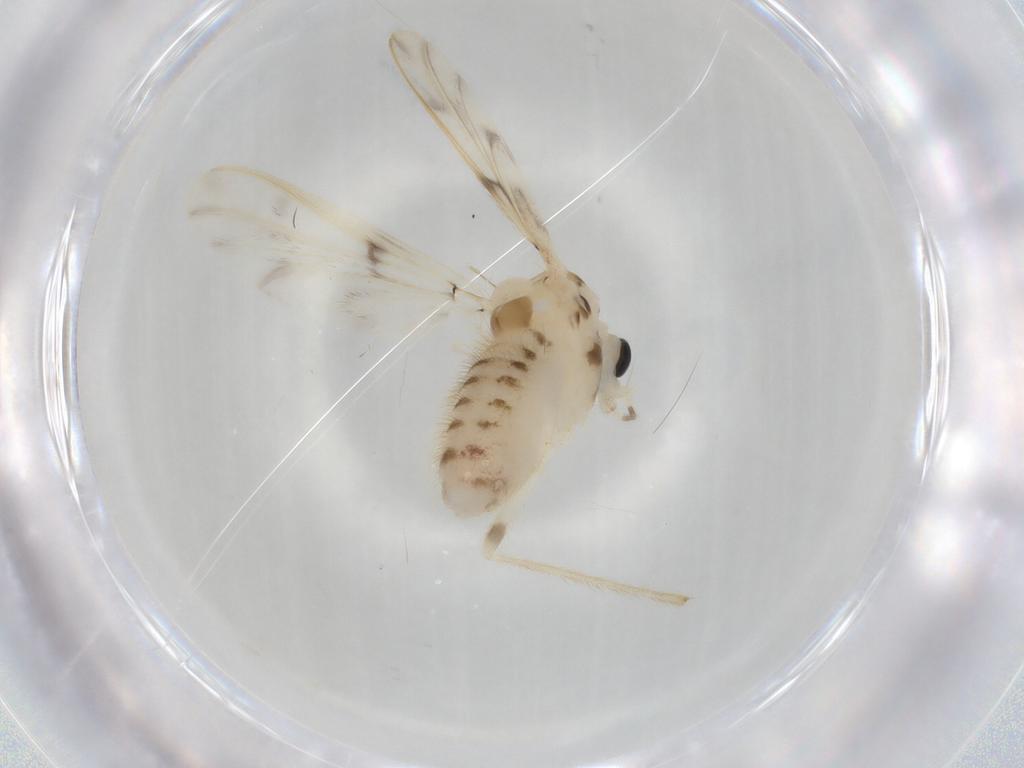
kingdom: Animalia
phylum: Arthropoda
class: Insecta
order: Diptera
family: Chironomidae
